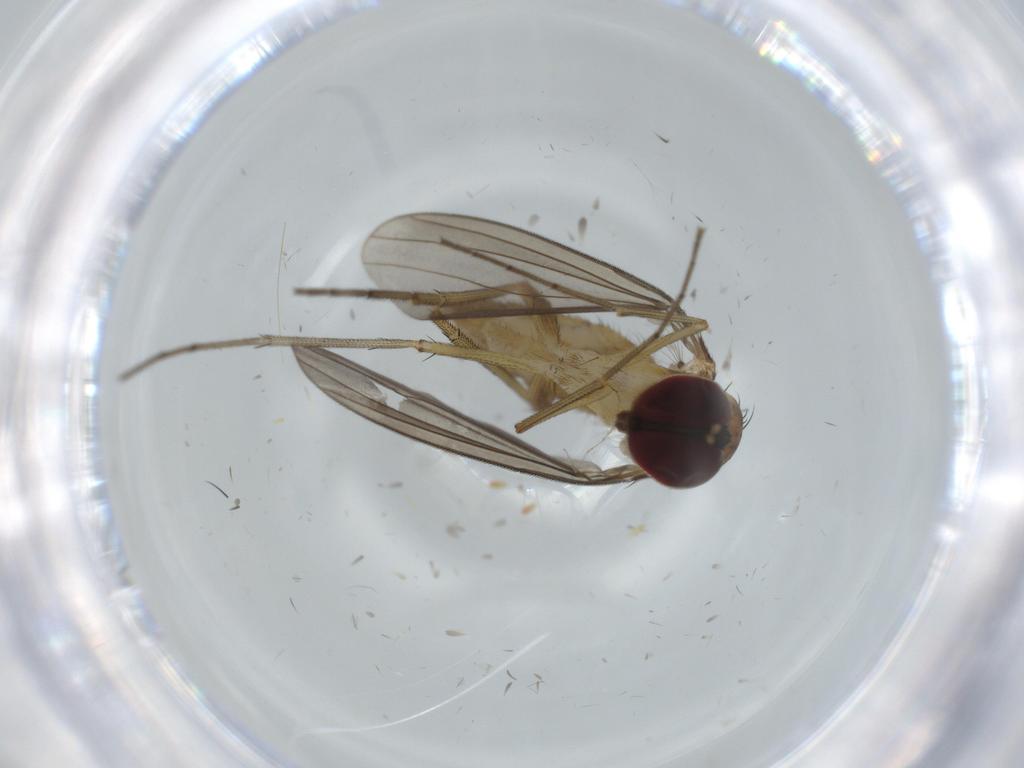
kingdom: Animalia
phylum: Arthropoda
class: Insecta
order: Diptera
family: Dolichopodidae
